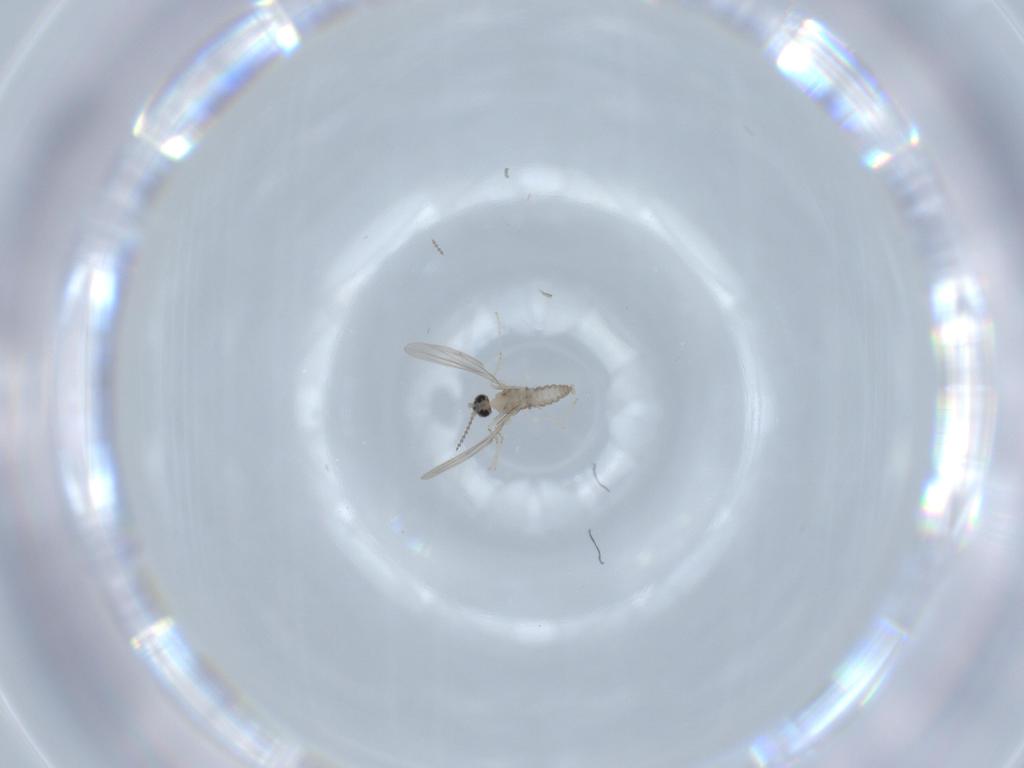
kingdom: Animalia
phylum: Arthropoda
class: Insecta
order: Diptera
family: Cecidomyiidae
